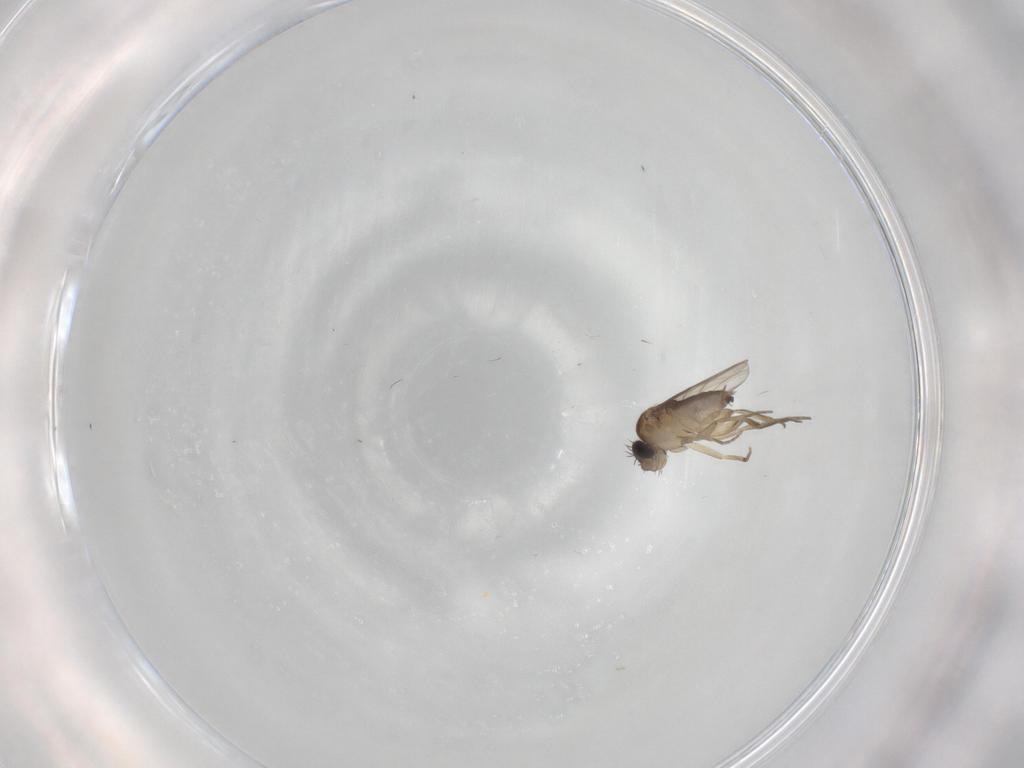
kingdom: Animalia
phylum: Arthropoda
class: Insecta
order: Diptera
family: Phoridae
